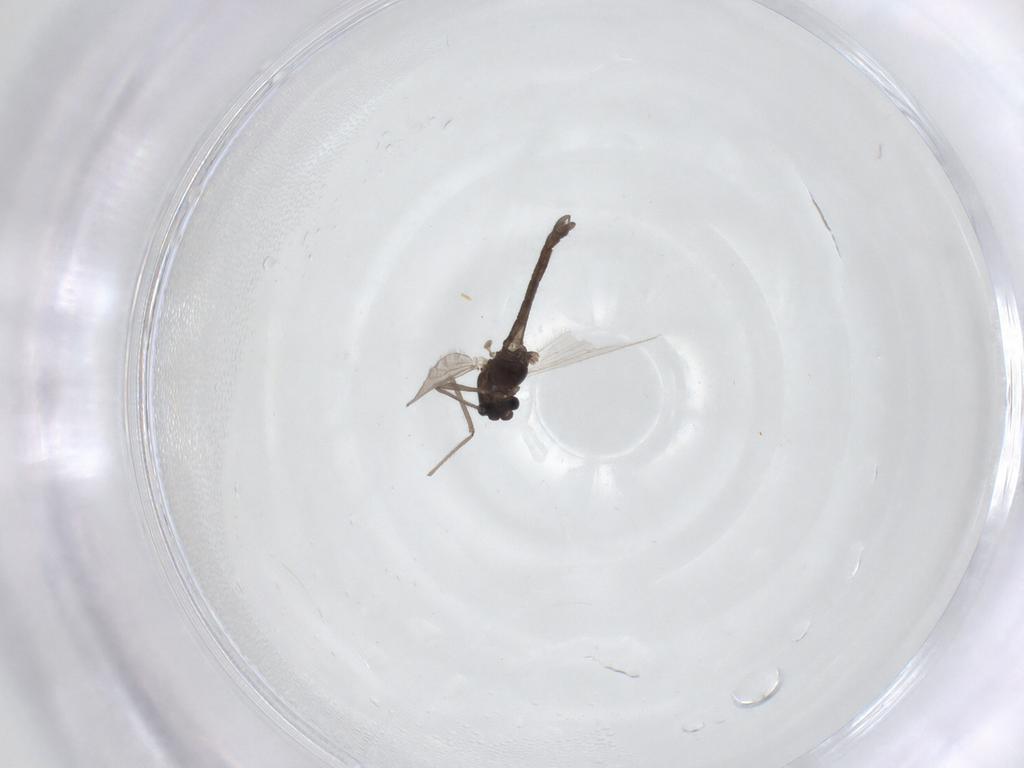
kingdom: Animalia
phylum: Arthropoda
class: Insecta
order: Diptera
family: Chironomidae
